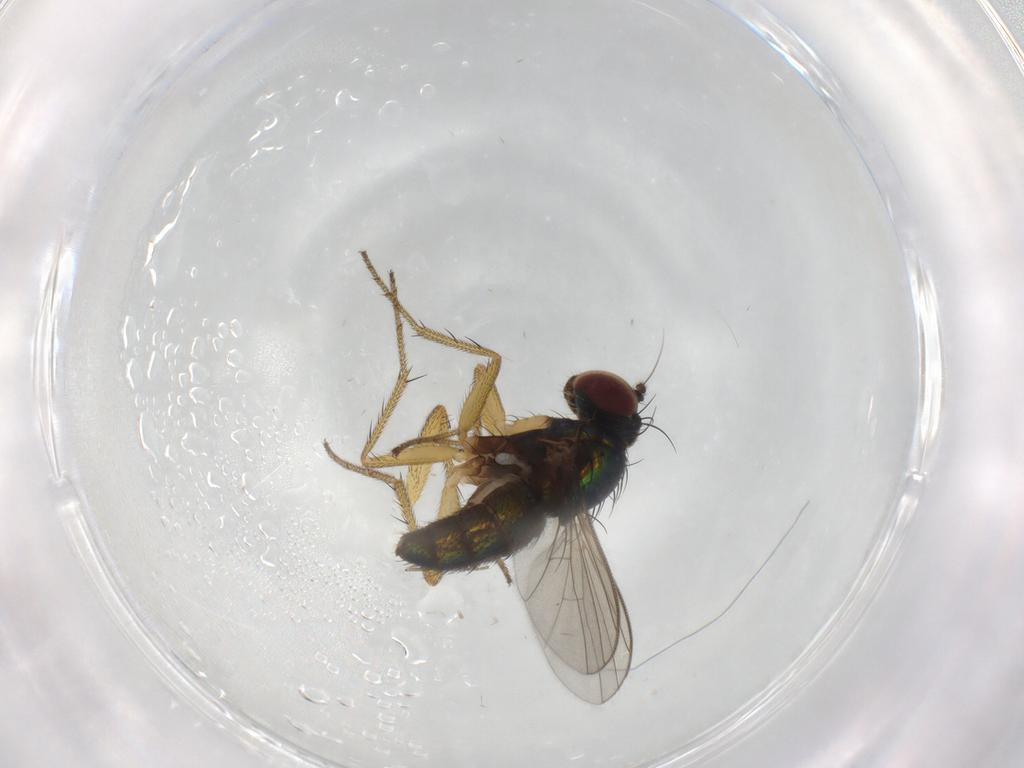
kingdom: Animalia
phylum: Arthropoda
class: Insecta
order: Diptera
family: Dolichopodidae
